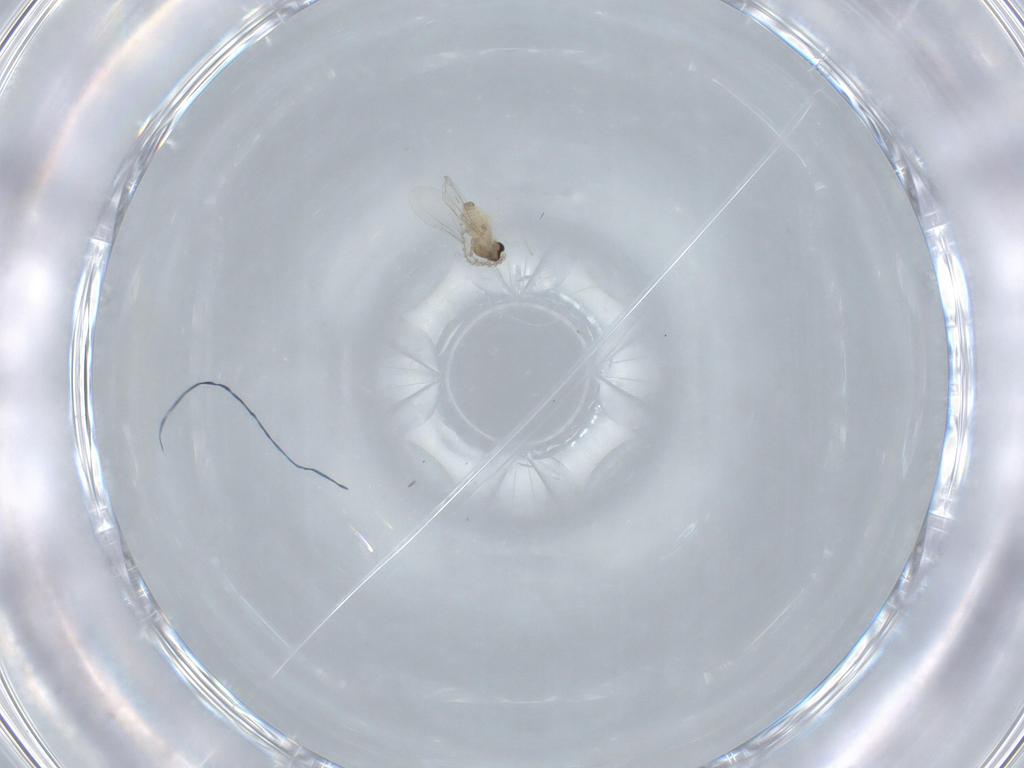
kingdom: Animalia
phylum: Arthropoda
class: Insecta
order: Diptera
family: Cecidomyiidae
